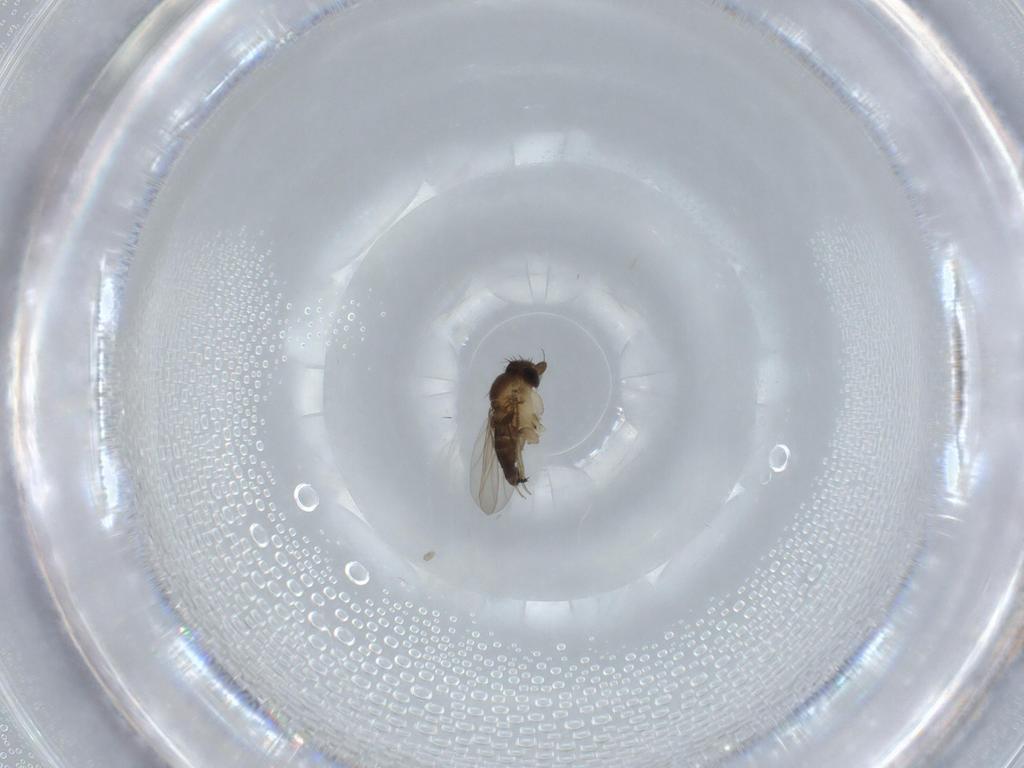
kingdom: Animalia
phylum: Arthropoda
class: Insecta
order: Diptera
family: Phoridae
